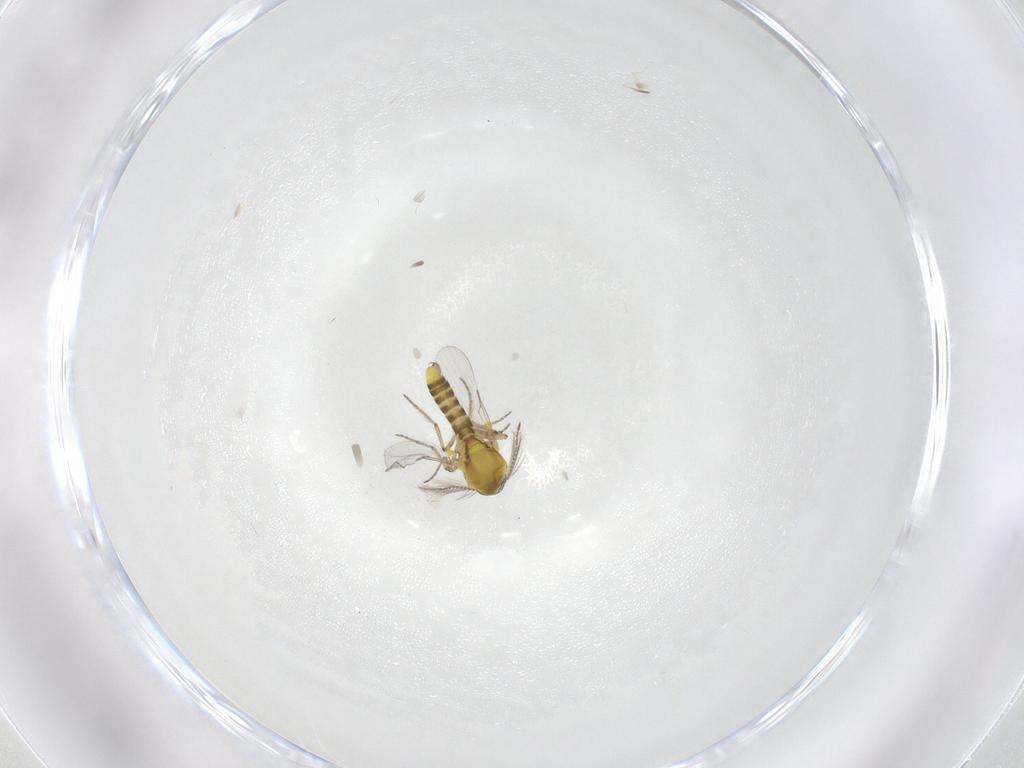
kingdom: Animalia
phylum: Arthropoda
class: Insecta
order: Diptera
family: Ceratopogonidae
